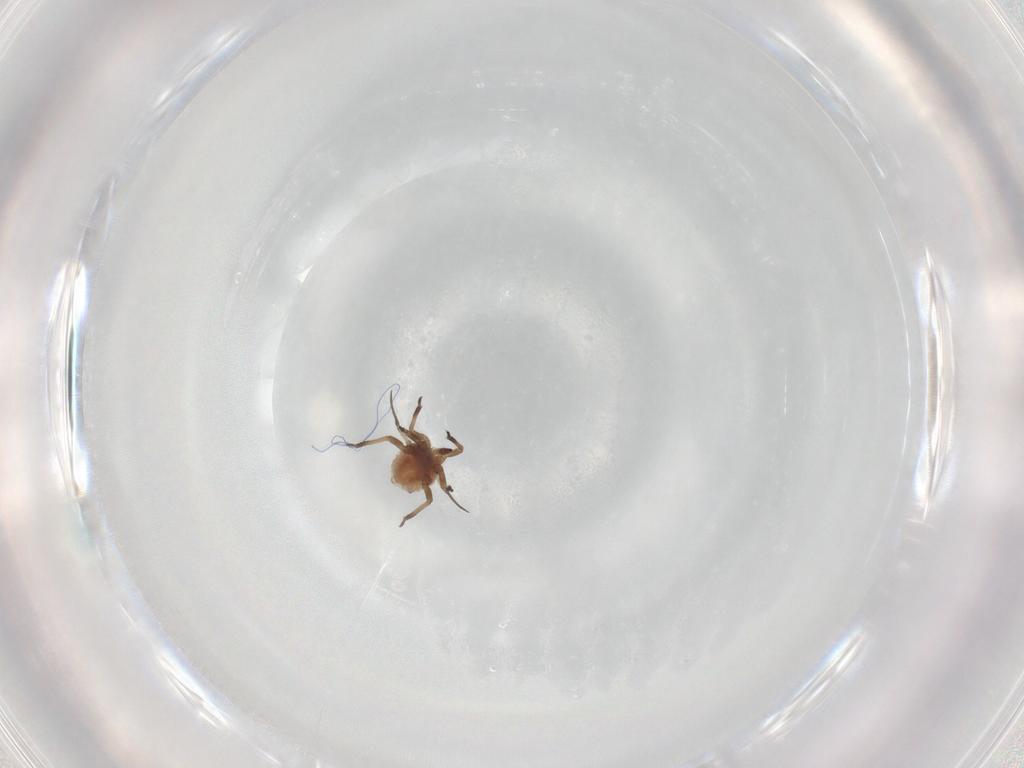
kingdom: Animalia
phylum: Arthropoda
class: Insecta
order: Hemiptera
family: Aphididae
